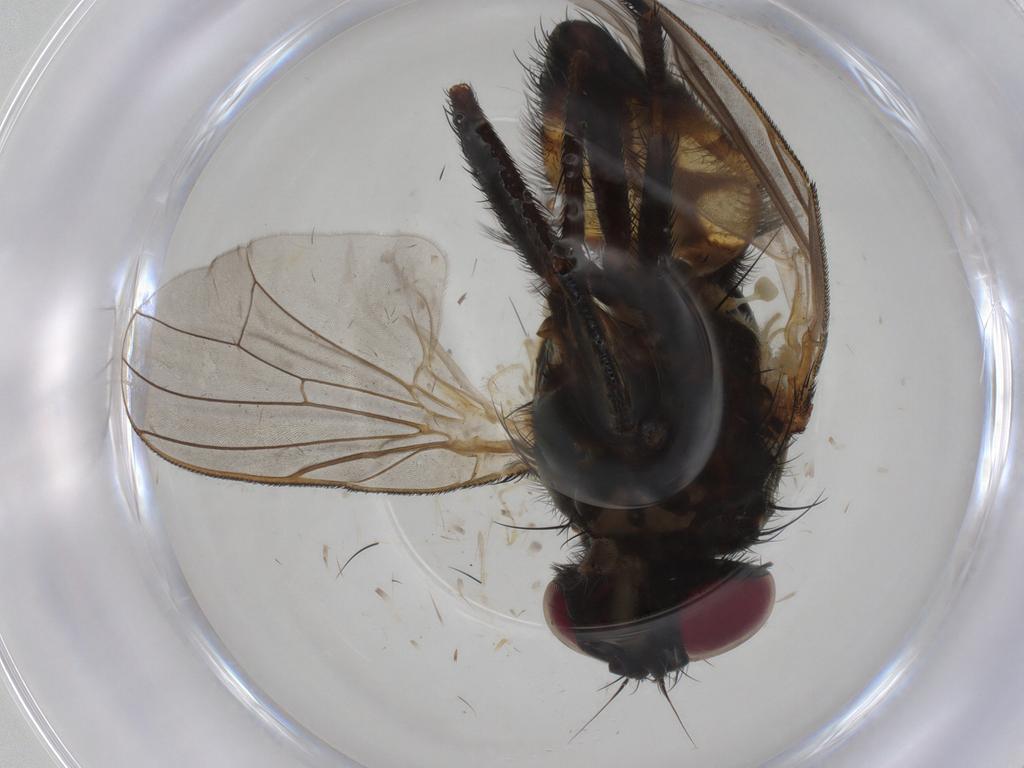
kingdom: Animalia
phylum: Arthropoda
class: Insecta
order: Diptera
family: Fannia
